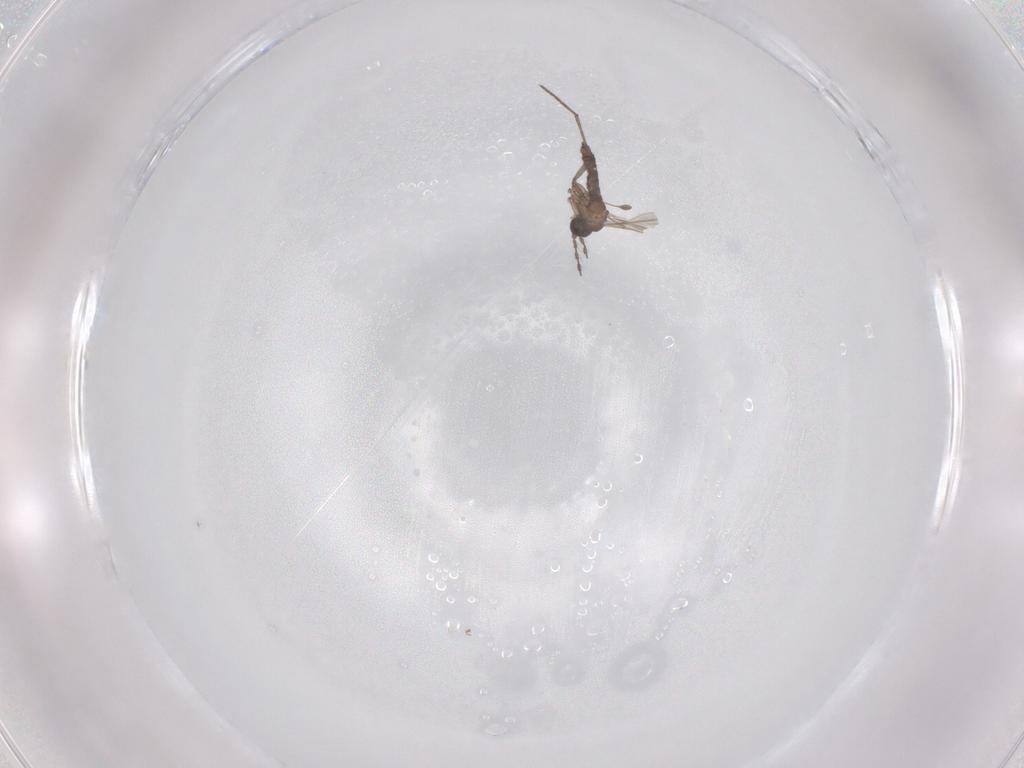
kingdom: Animalia
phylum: Arthropoda
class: Insecta
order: Diptera
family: Sciaridae
